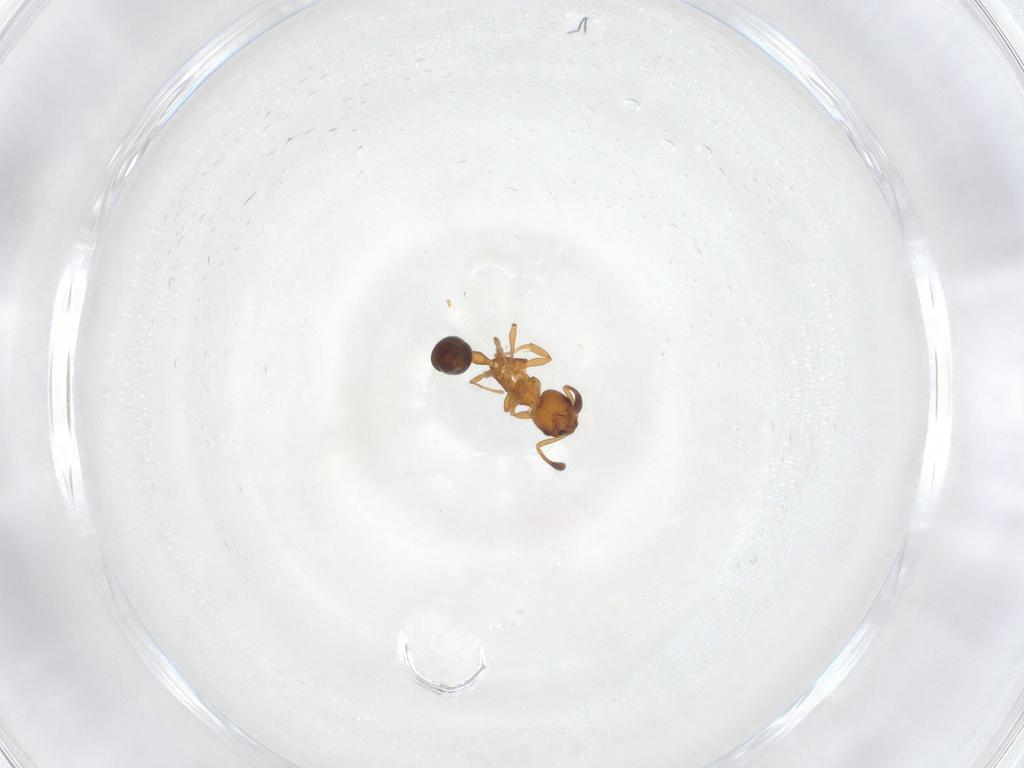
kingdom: Animalia
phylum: Arthropoda
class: Insecta
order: Hymenoptera
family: Formicidae
